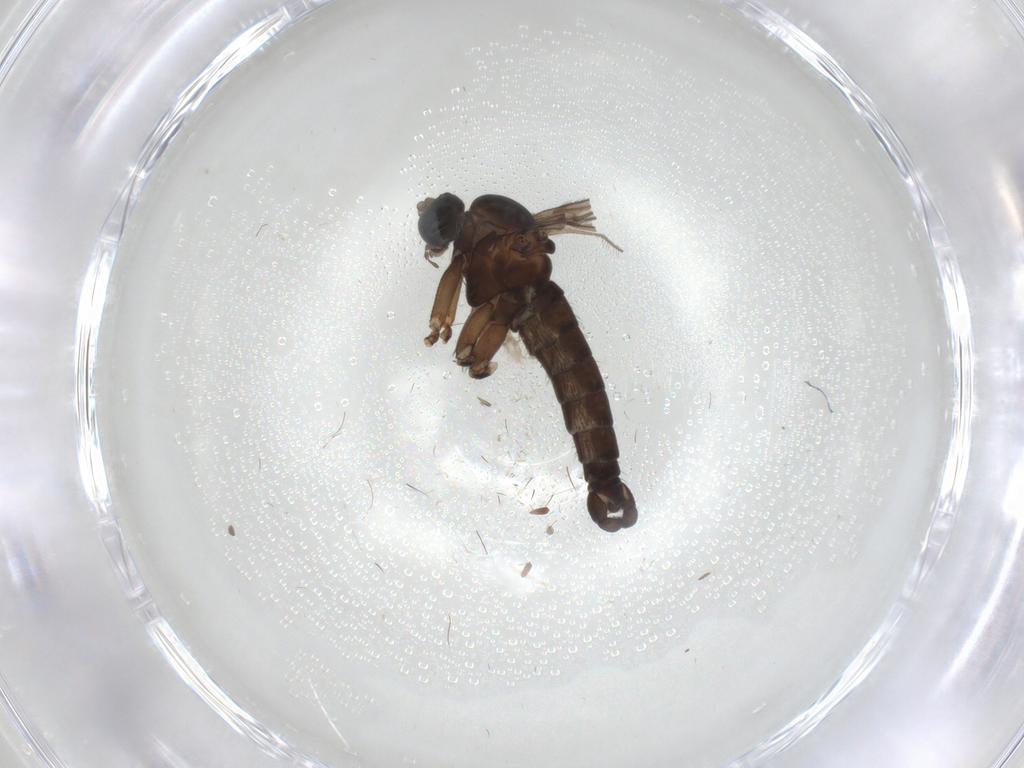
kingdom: Animalia
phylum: Arthropoda
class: Insecta
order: Diptera
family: Sciaridae
